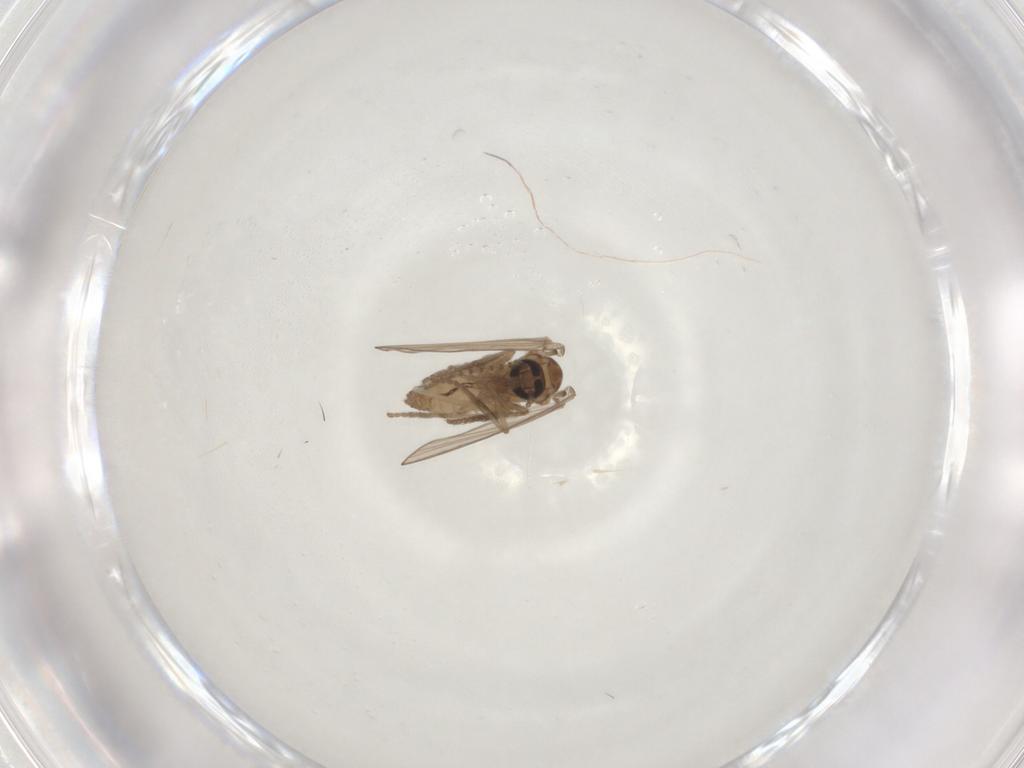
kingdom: Animalia
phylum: Arthropoda
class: Insecta
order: Diptera
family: Psychodidae
